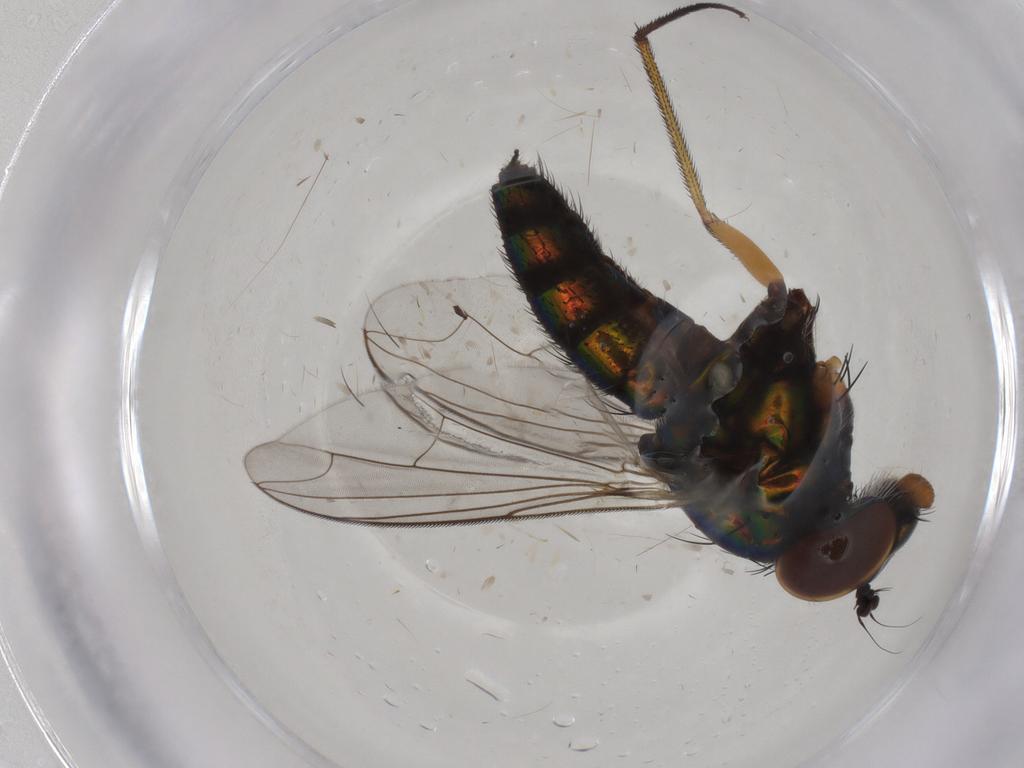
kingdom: Animalia
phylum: Arthropoda
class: Insecta
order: Diptera
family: Dolichopodidae
